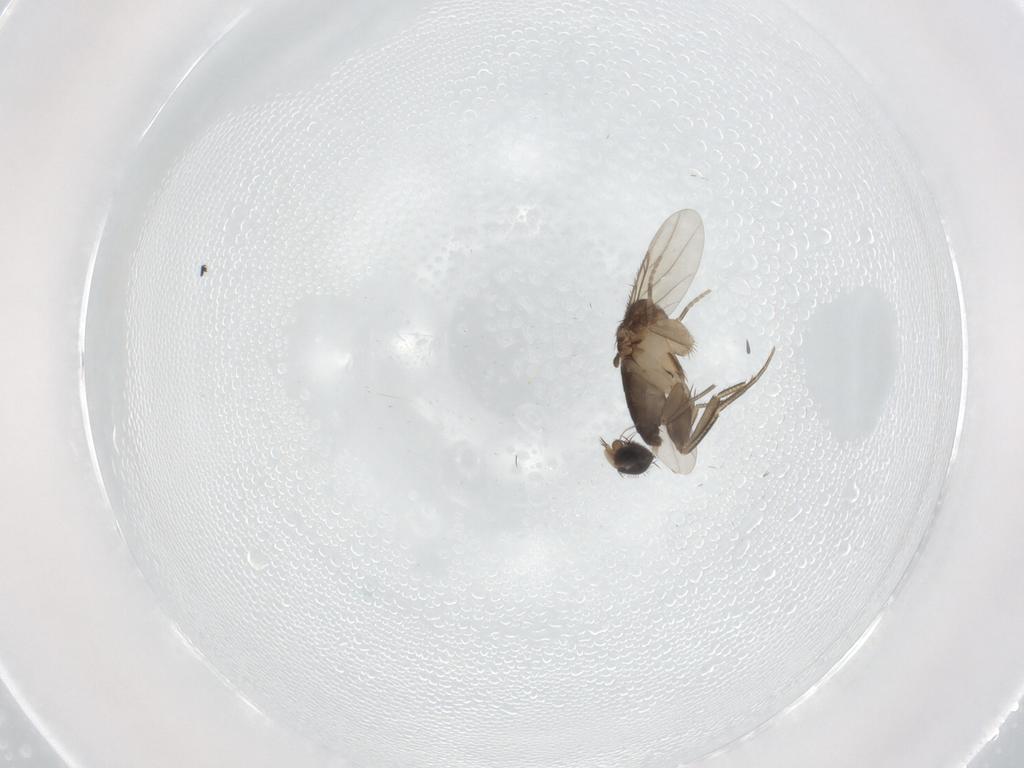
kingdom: Animalia
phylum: Arthropoda
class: Insecta
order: Diptera
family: Phoridae
